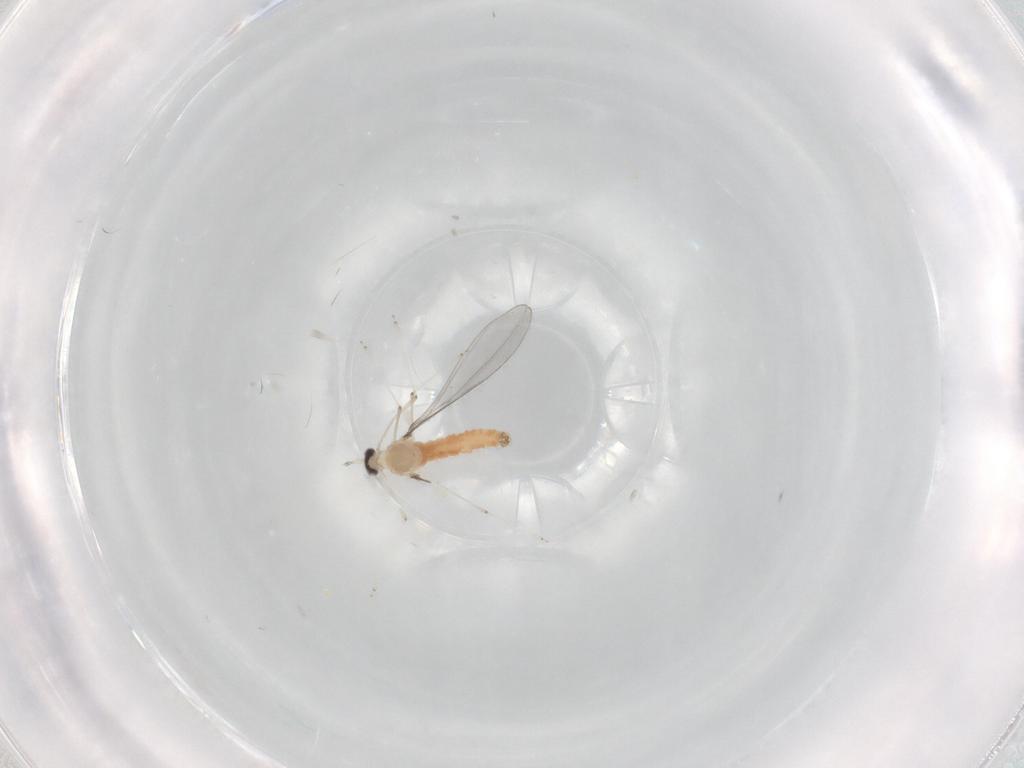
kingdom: Animalia
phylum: Arthropoda
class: Insecta
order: Diptera
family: Cecidomyiidae
